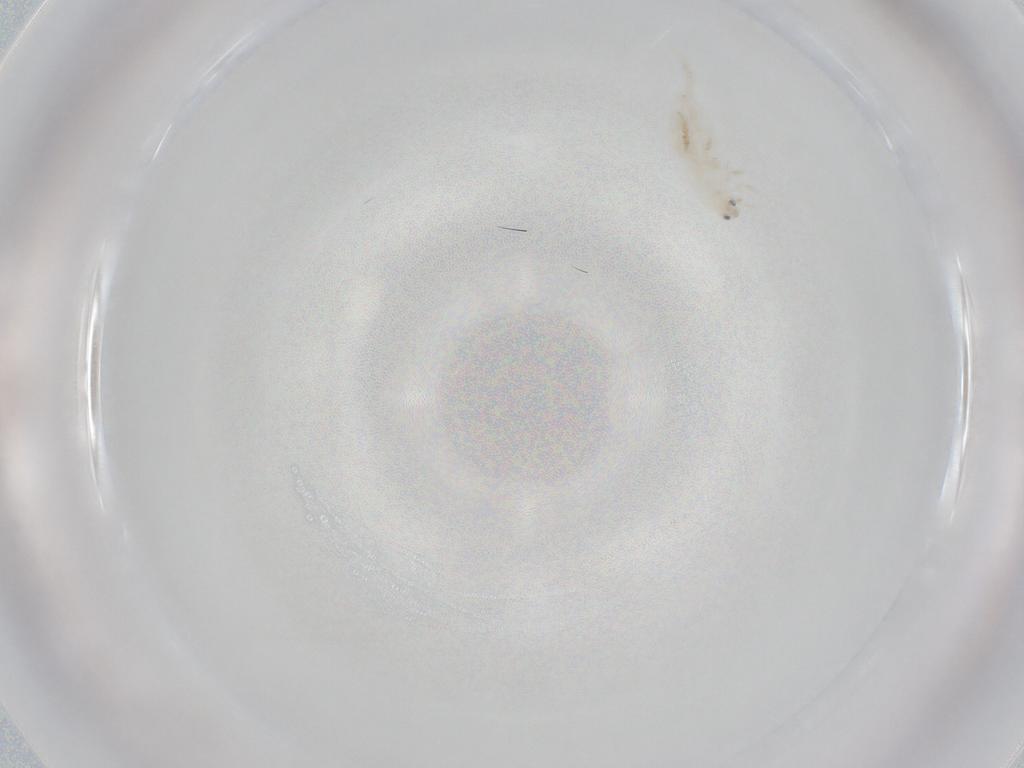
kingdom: Animalia
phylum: Arthropoda
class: Collembola
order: Entomobryomorpha
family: Entomobryidae
